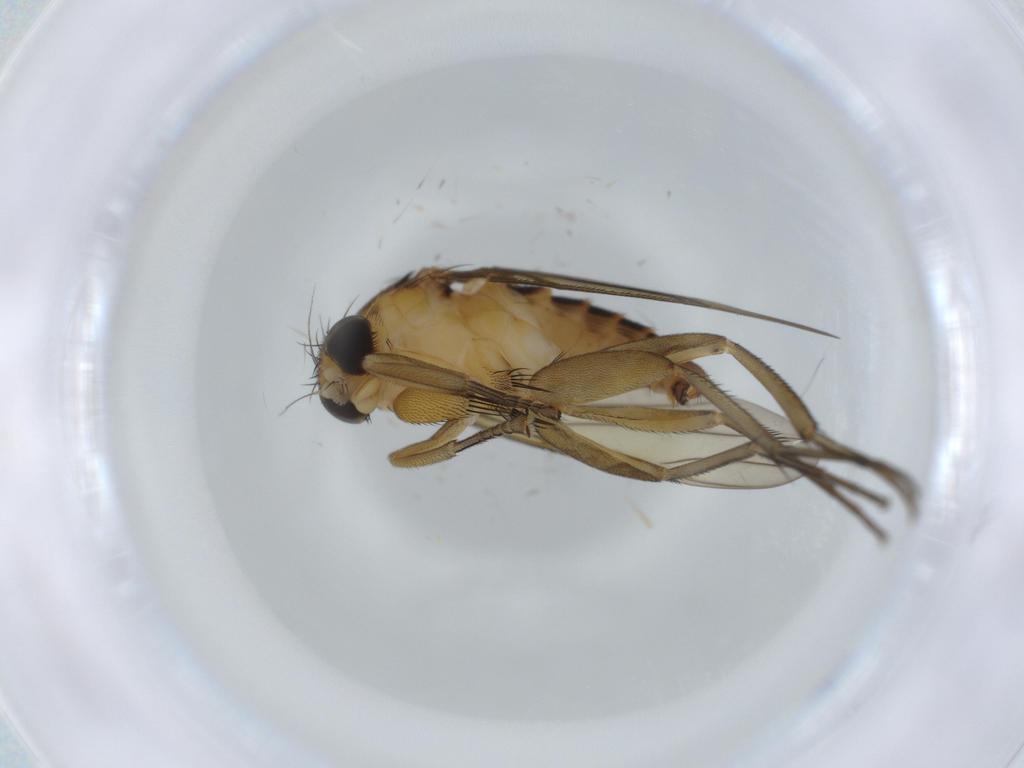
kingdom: Animalia
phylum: Arthropoda
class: Insecta
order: Diptera
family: Phoridae
